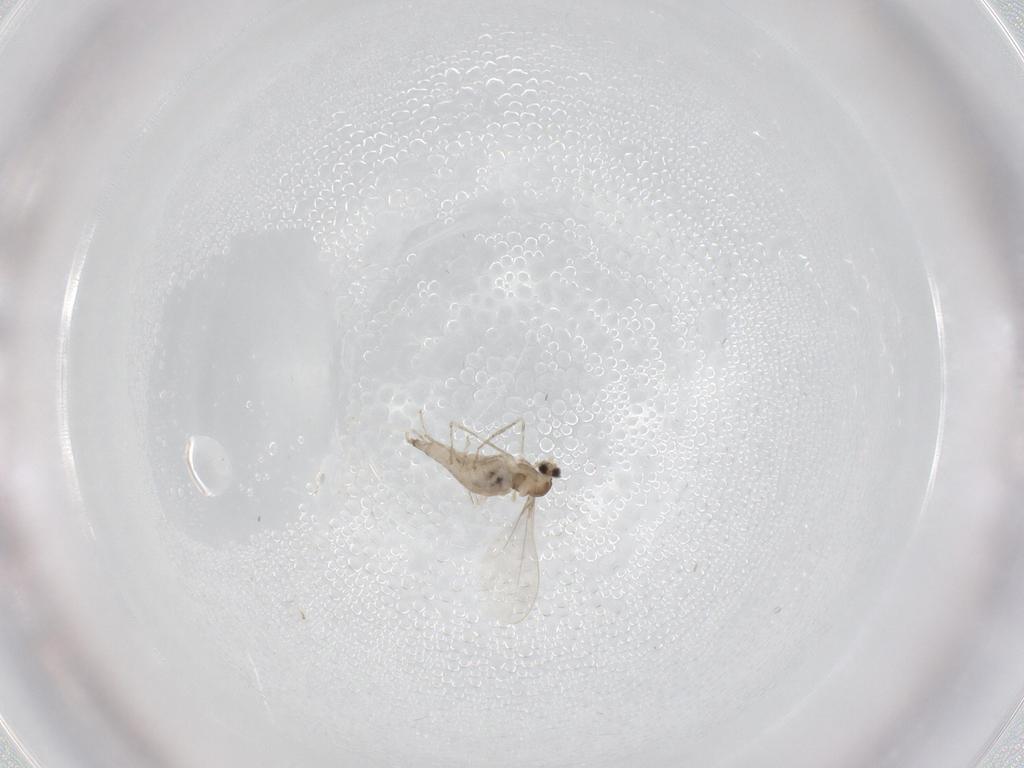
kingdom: Animalia
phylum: Arthropoda
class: Insecta
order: Diptera
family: Cecidomyiidae
